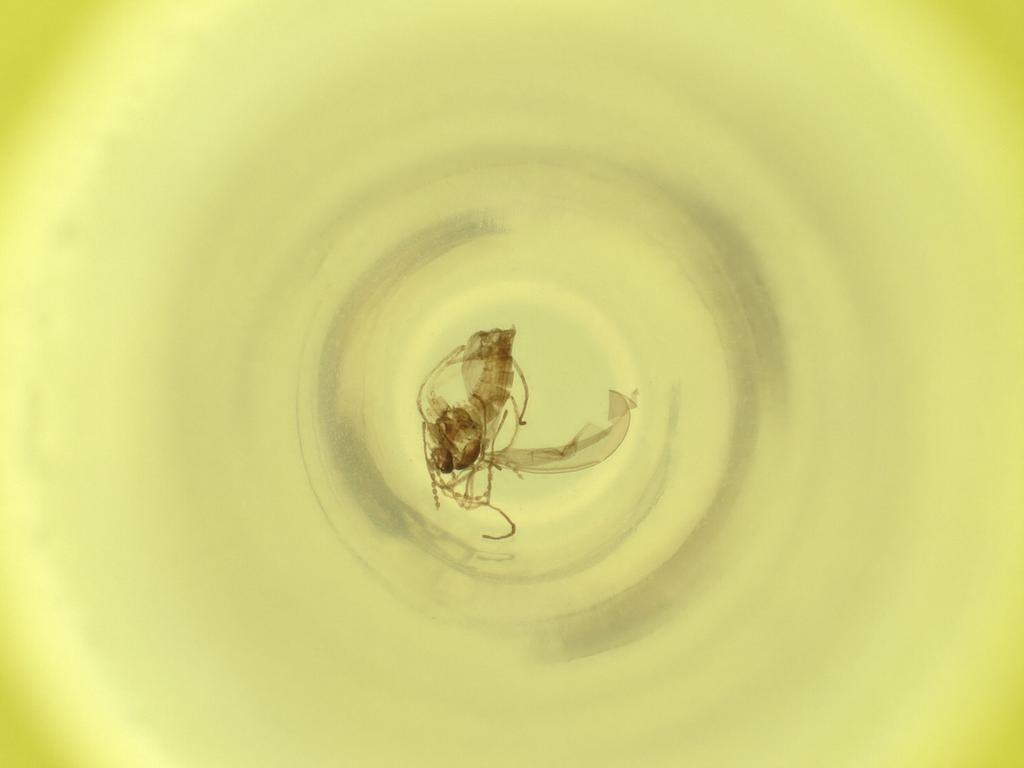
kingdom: Animalia
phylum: Arthropoda
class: Insecta
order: Diptera
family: Cecidomyiidae
